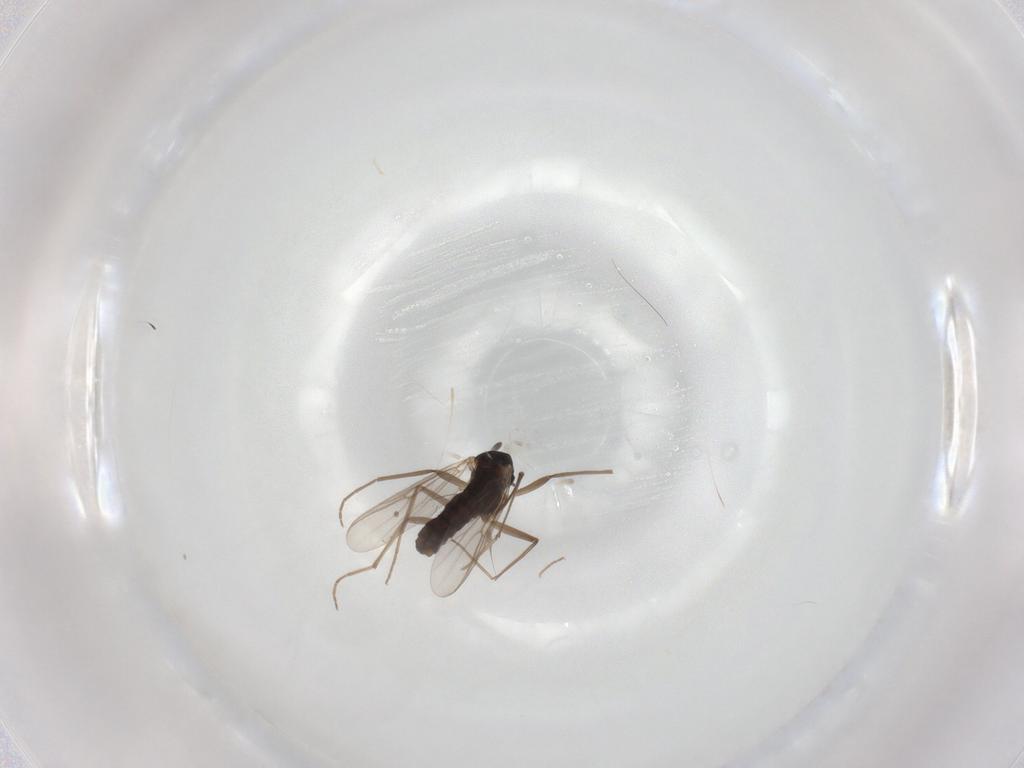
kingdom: Animalia
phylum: Arthropoda
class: Insecta
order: Diptera
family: Chironomidae
